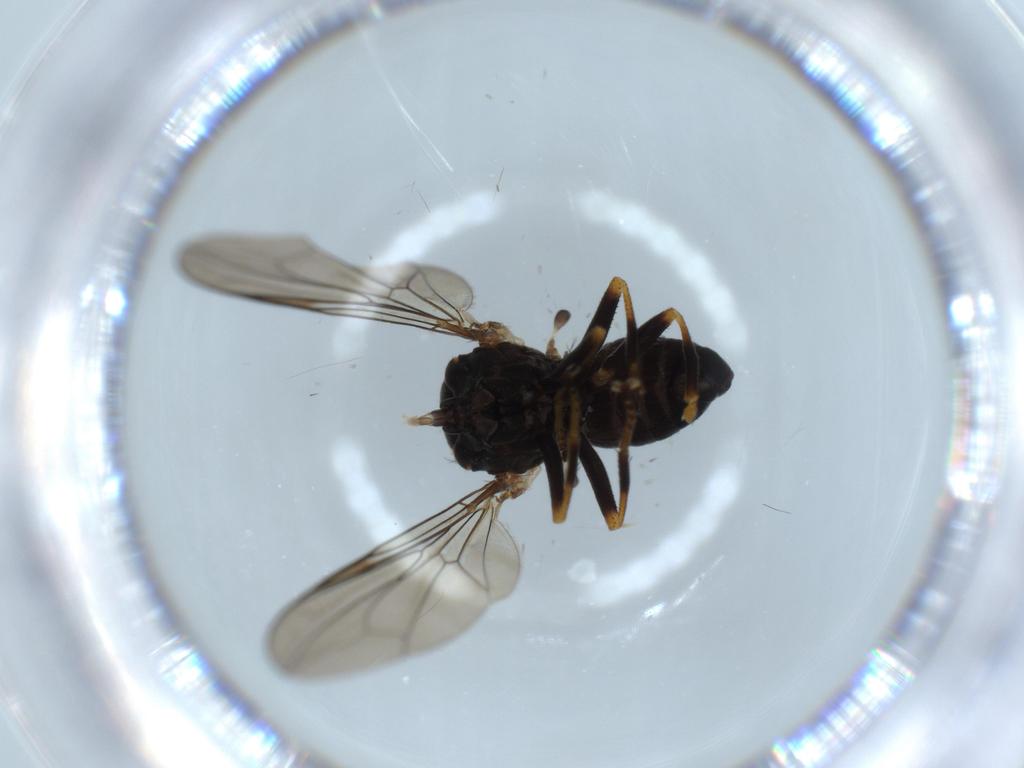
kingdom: Animalia
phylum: Arthropoda
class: Insecta
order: Diptera
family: Pipunculidae
